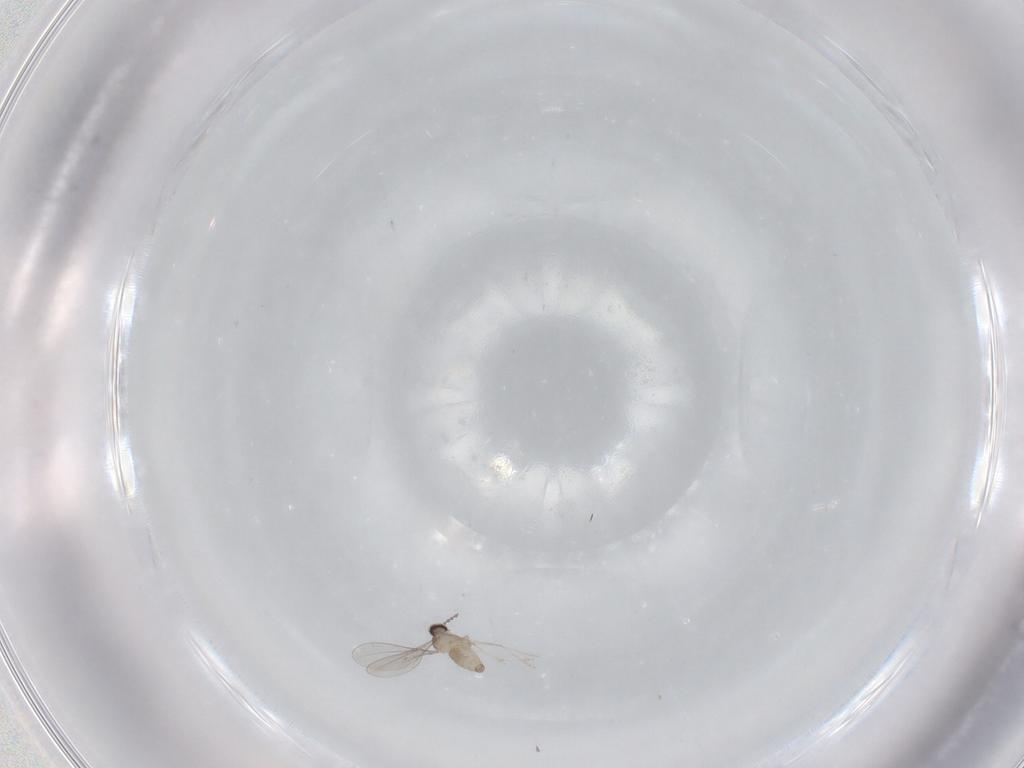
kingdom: Animalia
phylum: Arthropoda
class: Insecta
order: Diptera
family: Cecidomyiidae
